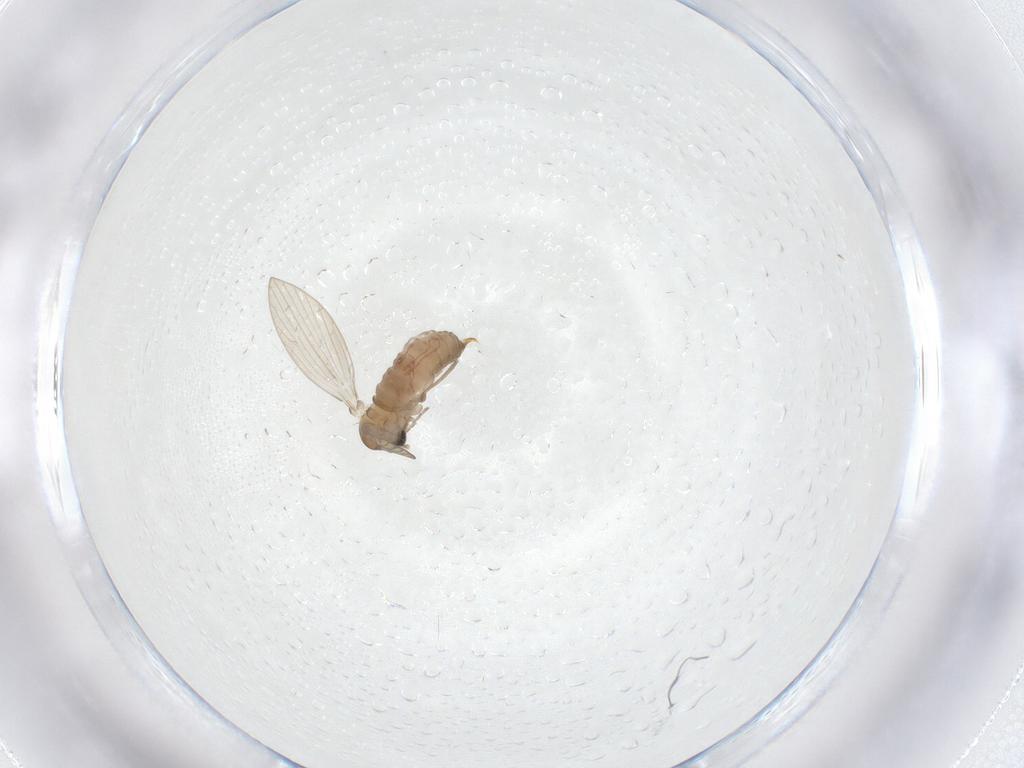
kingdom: Animalia
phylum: Arthropoda
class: Insecta
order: Diptera
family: Psychodidae
